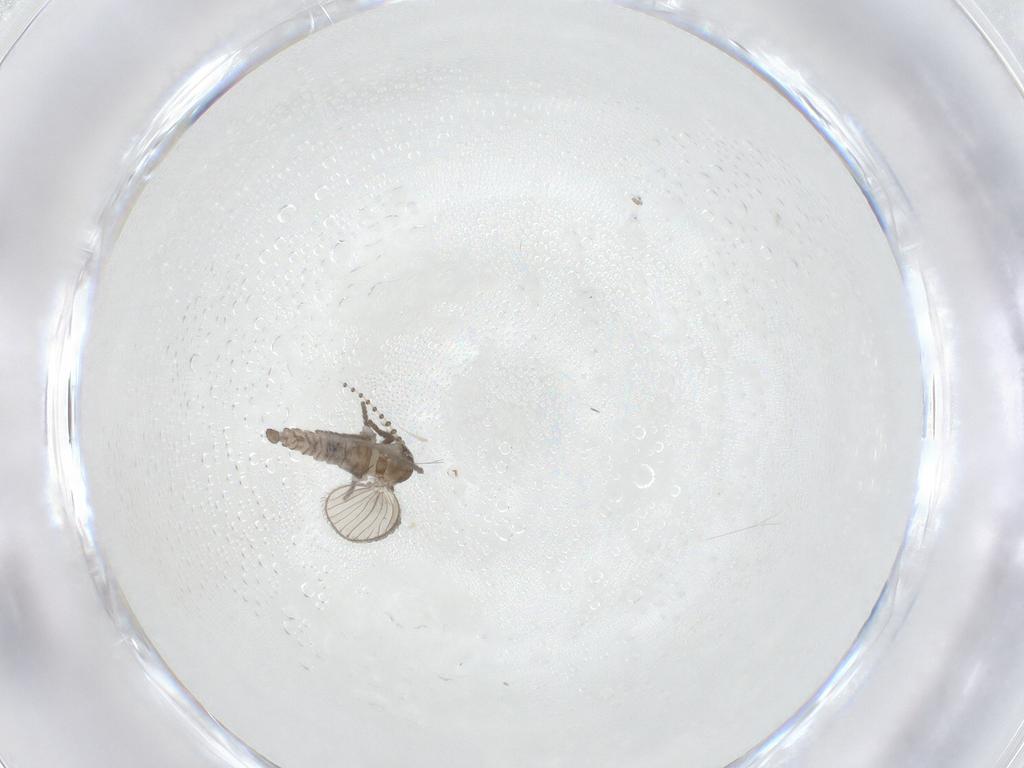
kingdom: Animalia
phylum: Arthropoda
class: Insecta
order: Diptera
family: Psychodidae
